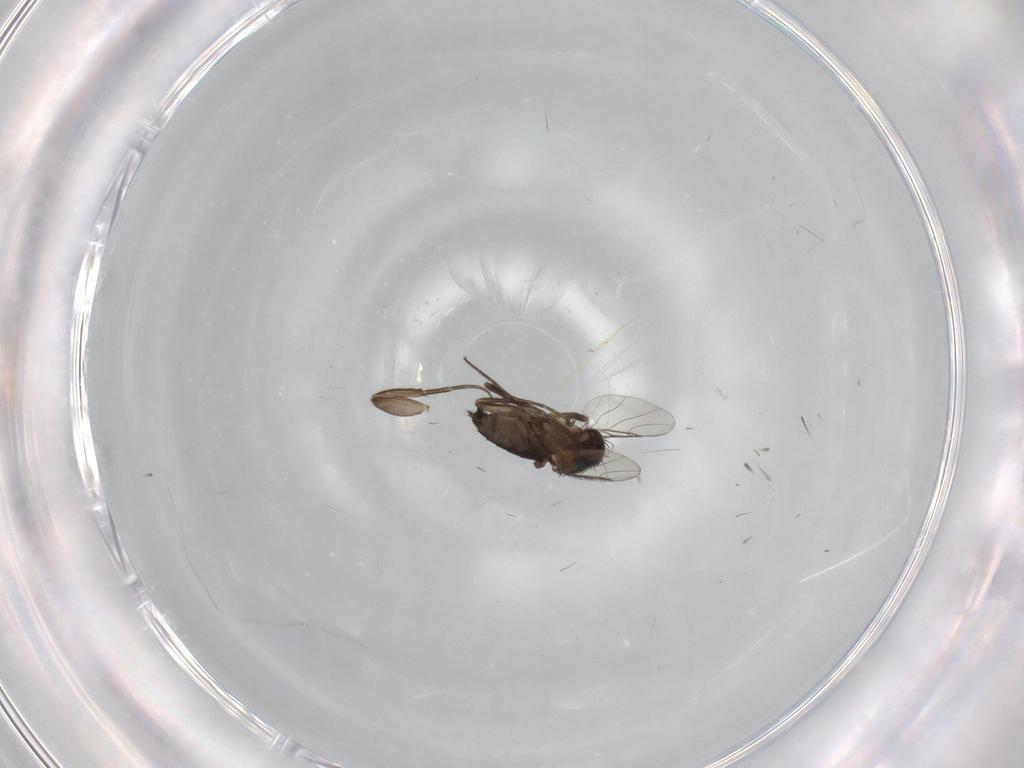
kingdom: Animalia
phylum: Arthropoda
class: Insecta
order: Diptera
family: Phoridae
